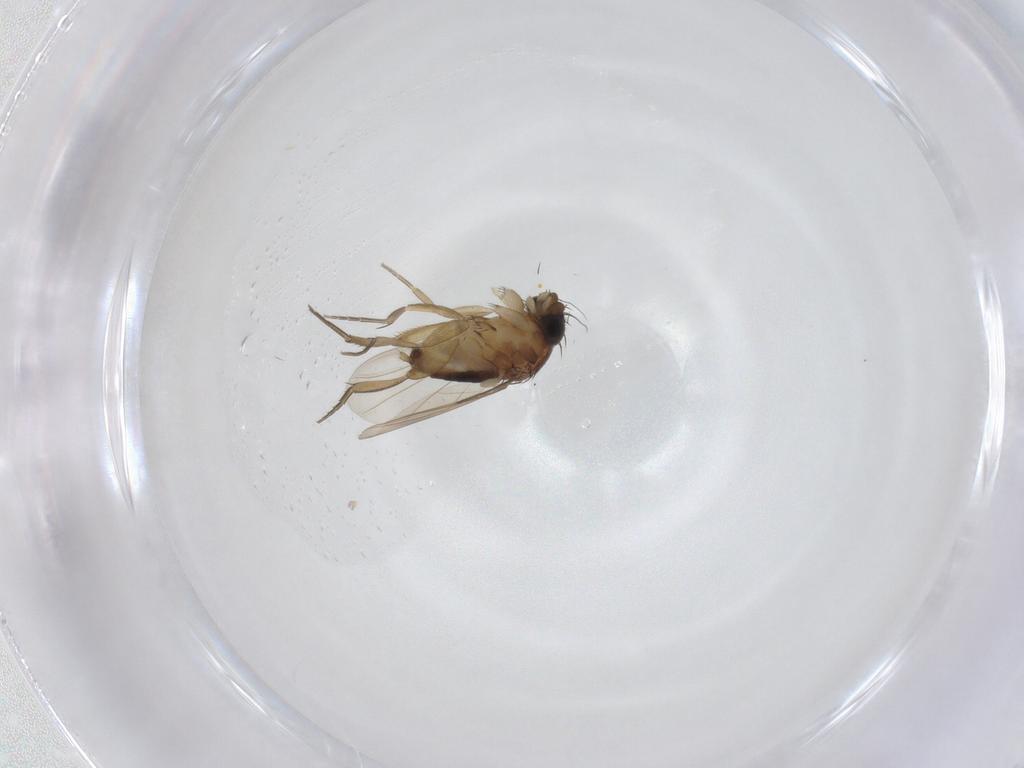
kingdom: Animalia
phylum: Arthropoda
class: Insecta
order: Diptera
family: Phoridae
